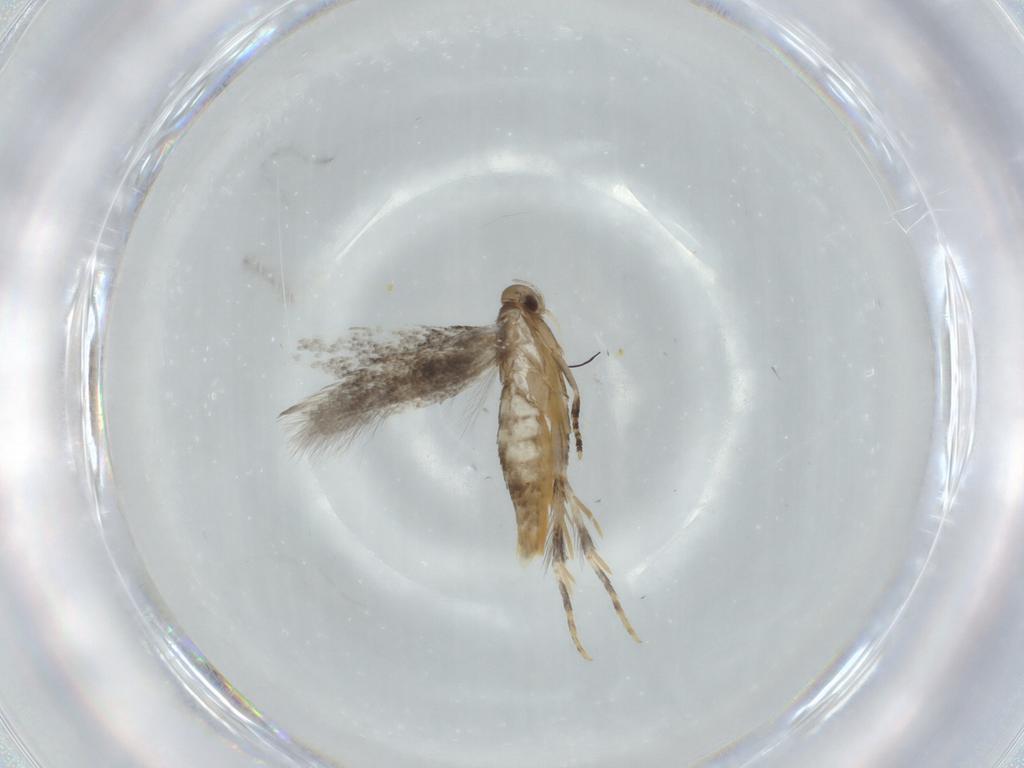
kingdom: Animalia
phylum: Arthropoda
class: Insecta
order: Lepidoptera
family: Elachistidae
